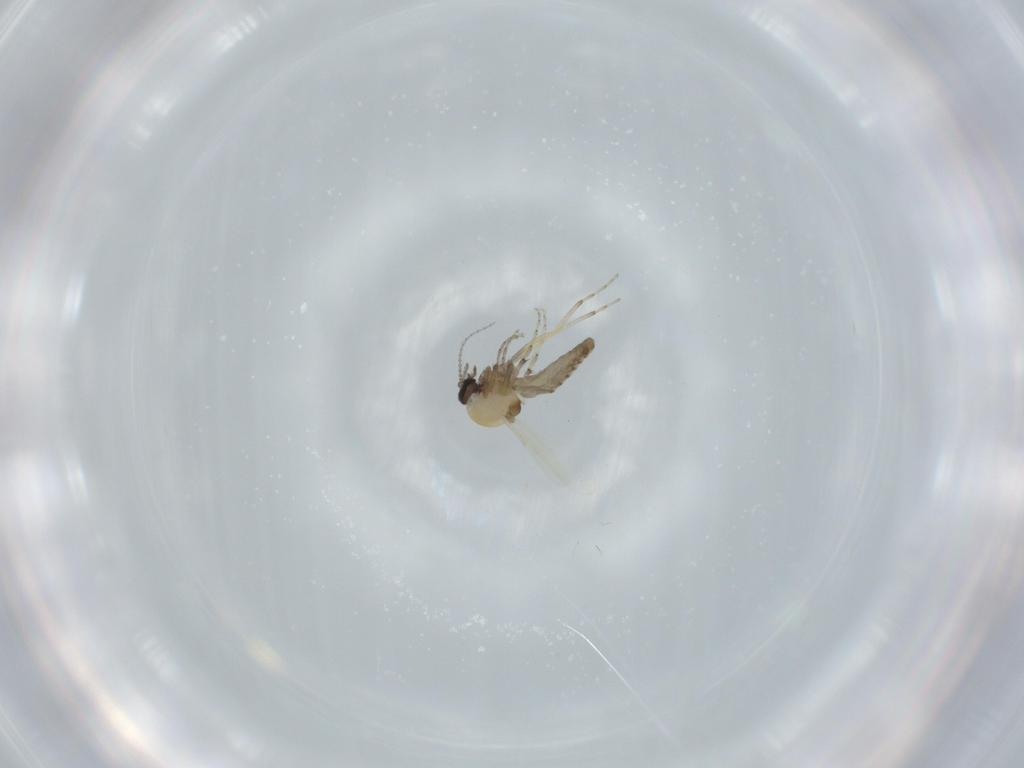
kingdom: Animalia
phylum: Arthropoda
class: Insecta
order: Diptera
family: Ceratopogonidae
